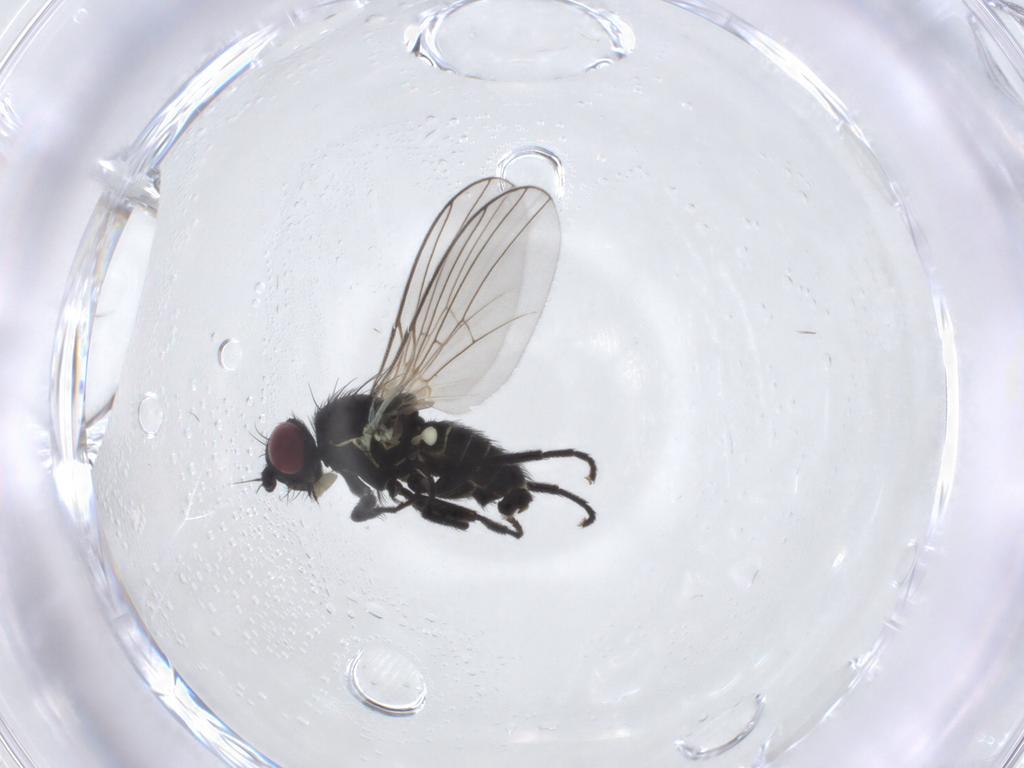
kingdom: Animalia
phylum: Arthropoda
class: Insecta
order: Diptera
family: Agromyzidae
